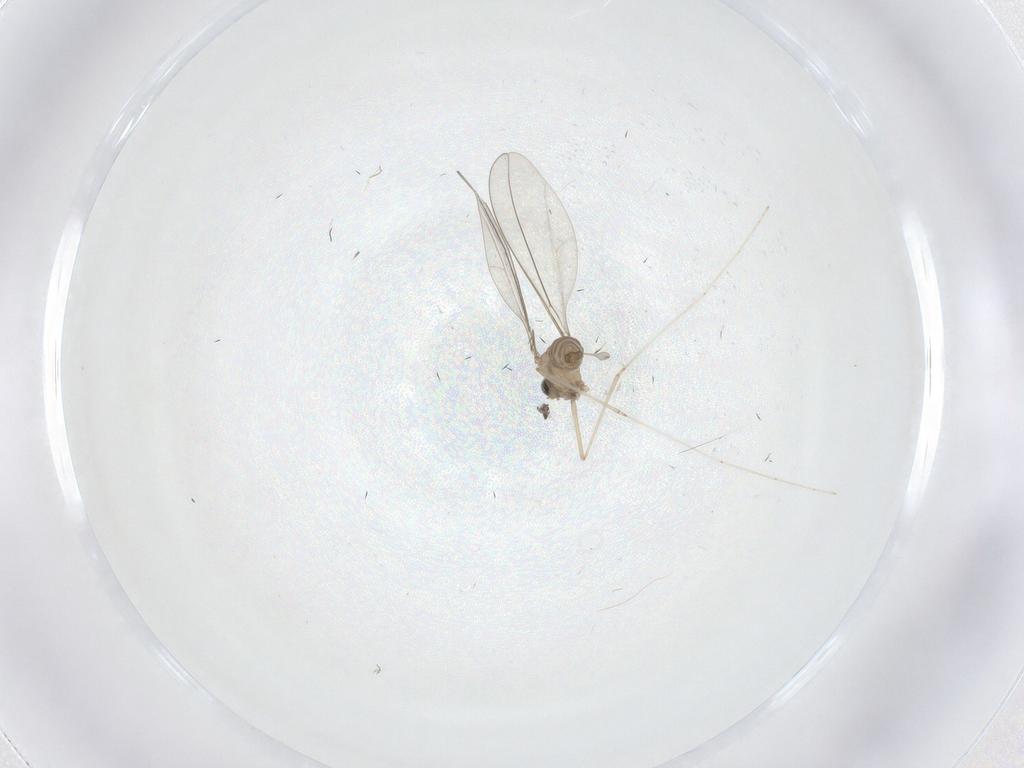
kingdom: Animalia
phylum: Arthropoda
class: Insecta
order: Diptera
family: Cecidomyiidae
